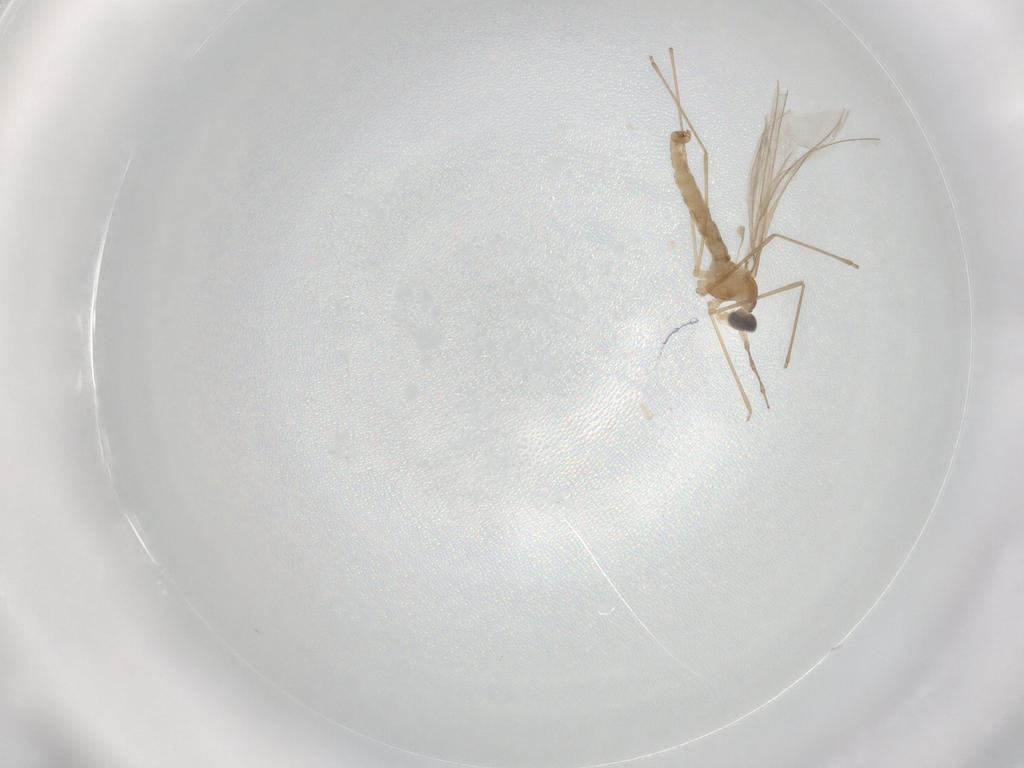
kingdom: Animalia
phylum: Arthropoda
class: Insecta
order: Diptera
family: Cecidomyiidae
